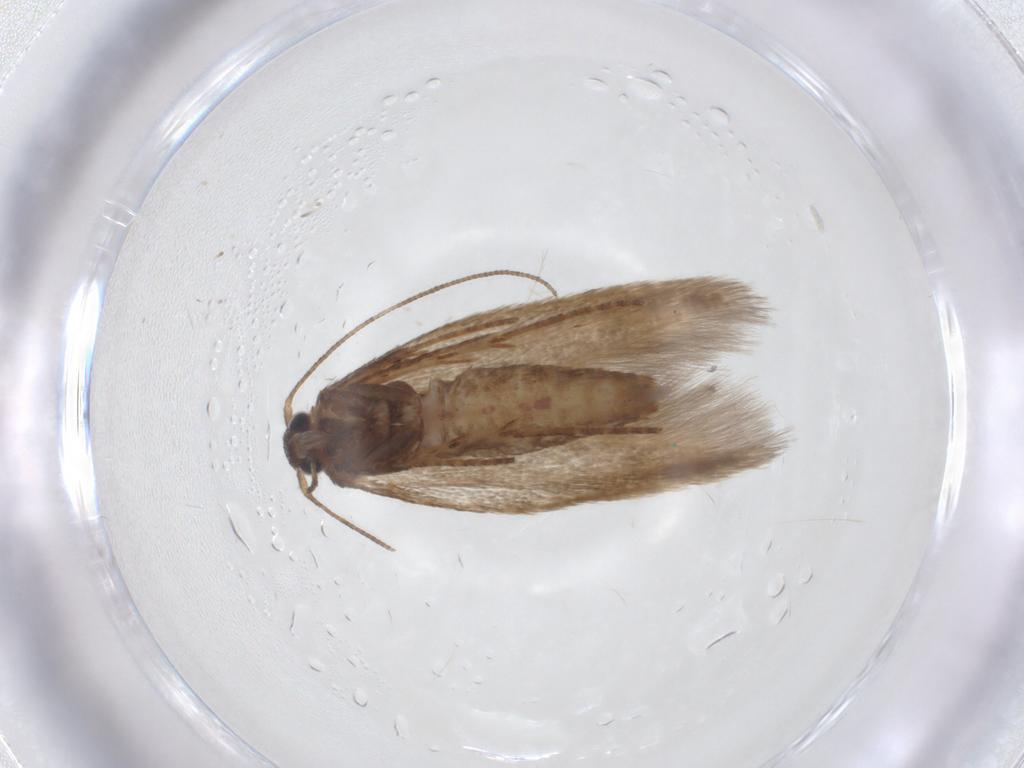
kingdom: Animalia
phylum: Arthropoda
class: Insecta
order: Lepidoptera
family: Scythrididae
